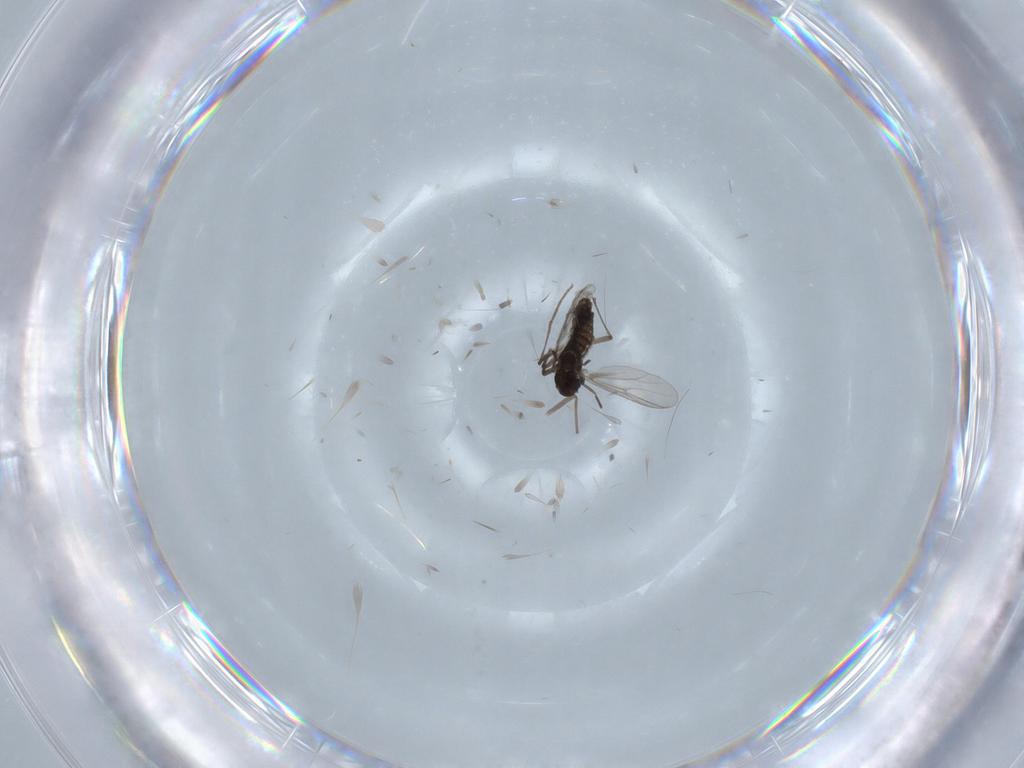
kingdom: Animalia
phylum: Arthropoda
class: Insecta
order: Diptera
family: Chironomidae
